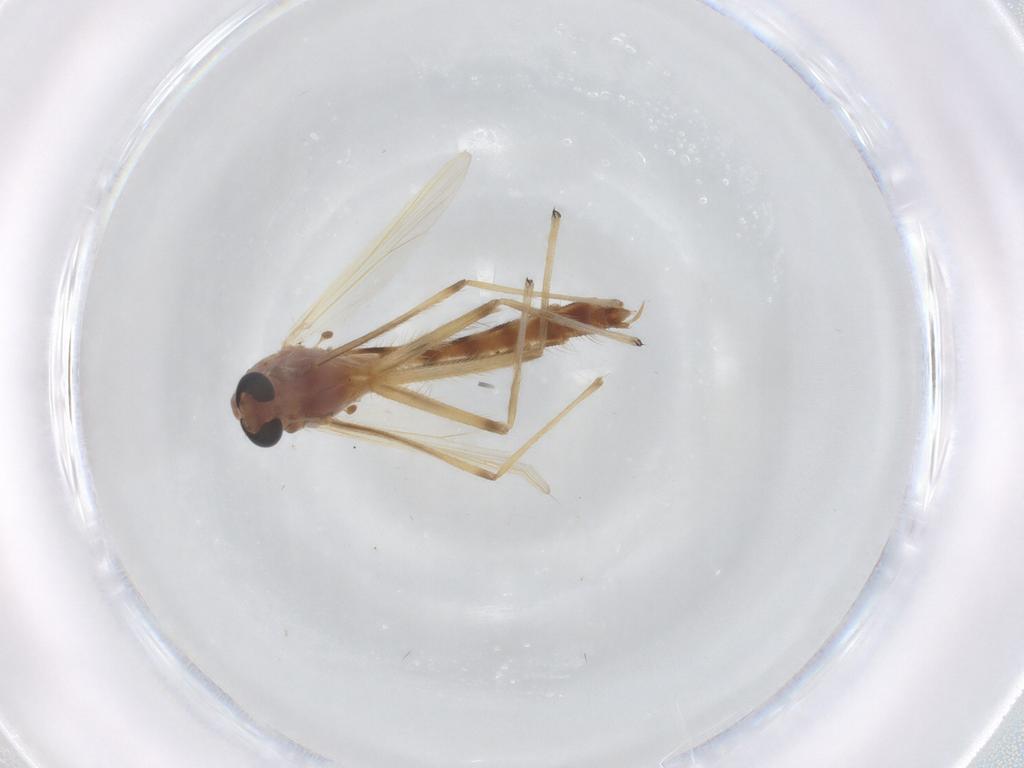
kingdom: Animalia
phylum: Arthropoda
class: Insecta
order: Diptera
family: Chironomidae
